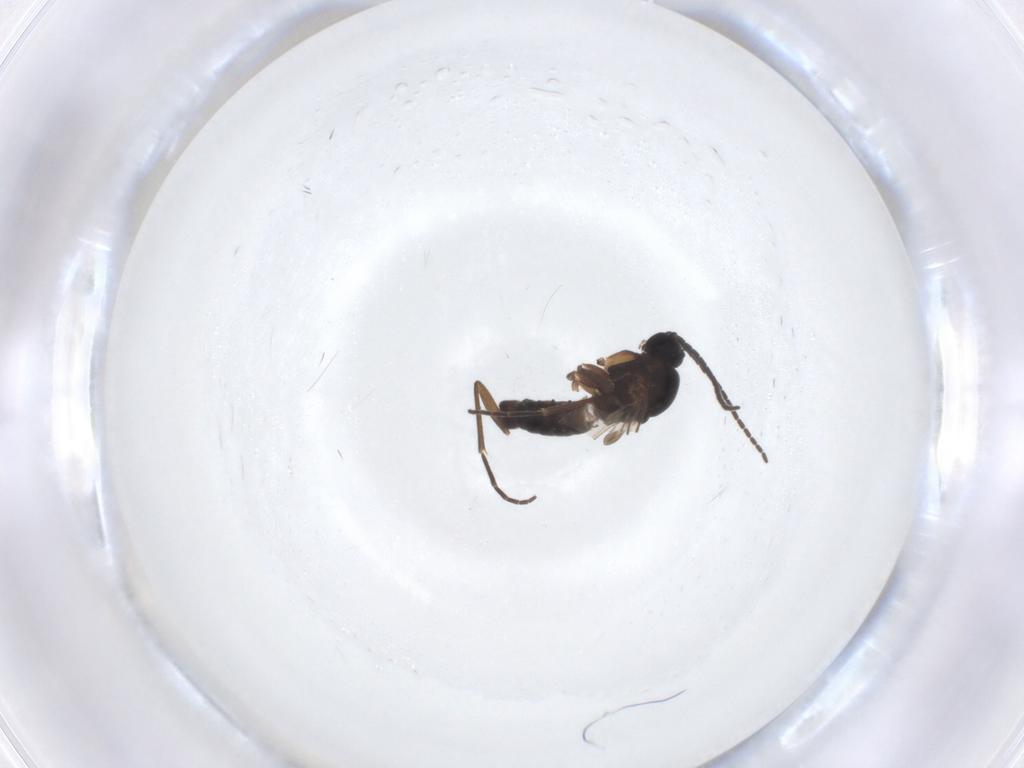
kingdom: Animalia
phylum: Arthropoda
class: Insecta
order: Diptera
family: Sciaridae
